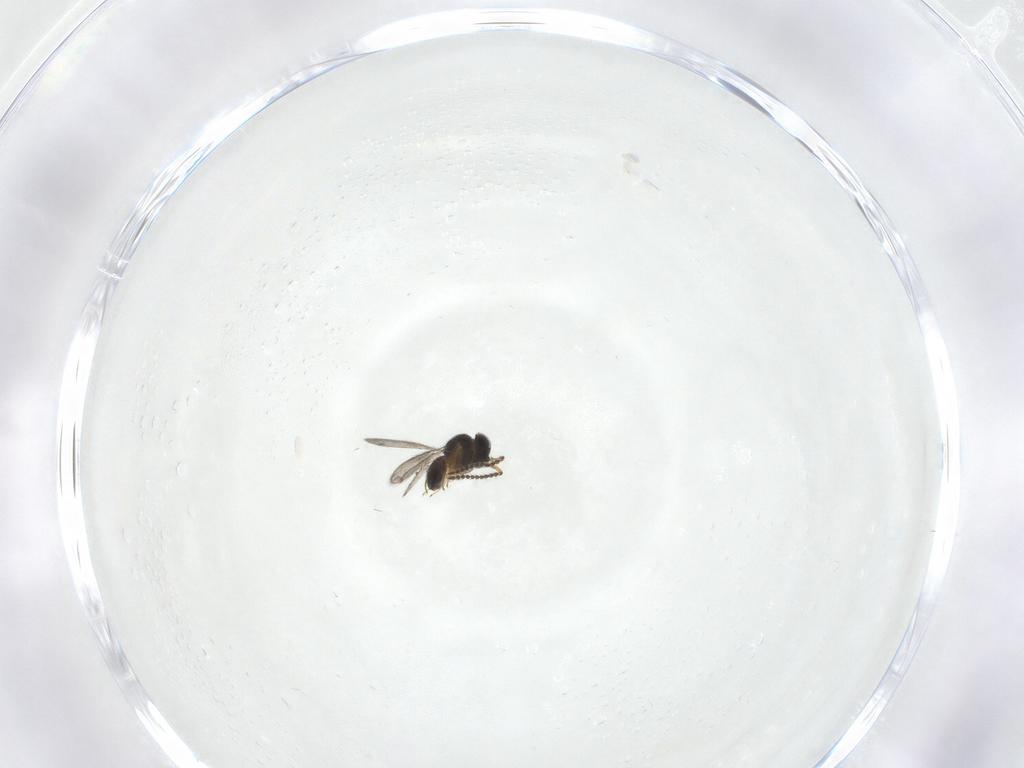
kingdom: Animalia
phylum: Arthropoda
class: Insecta
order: Hymenoptera
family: Scelionidae
